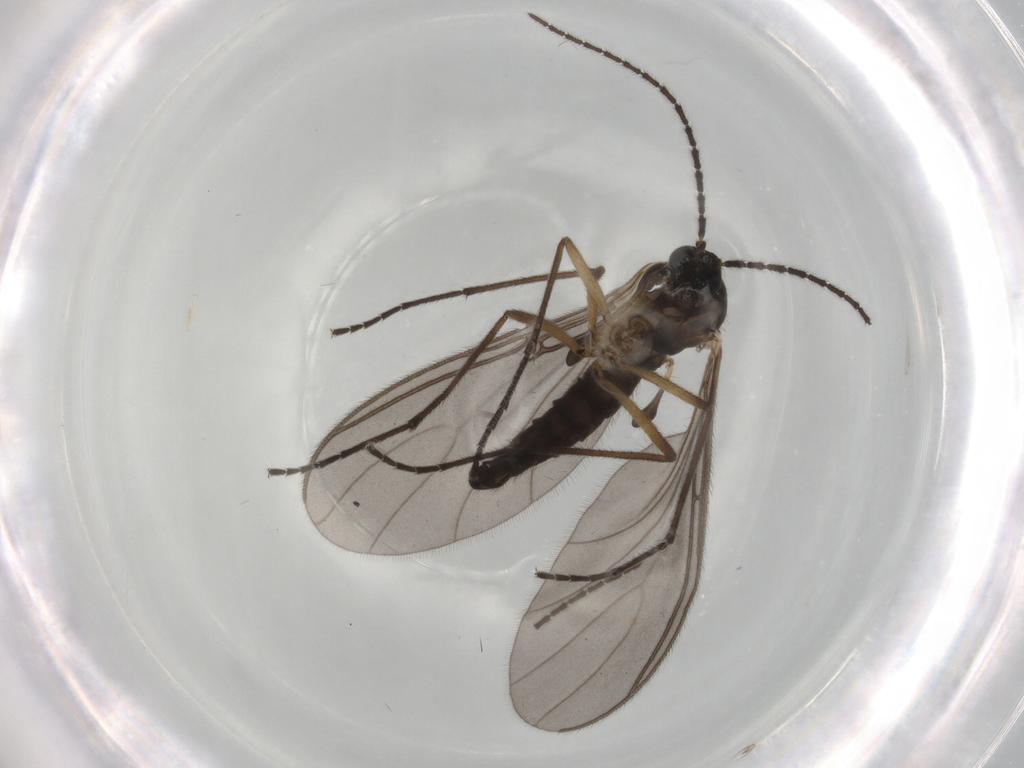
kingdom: Animalia
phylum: Arthropoda
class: Insecta
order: Diptera
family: Sciaridae
